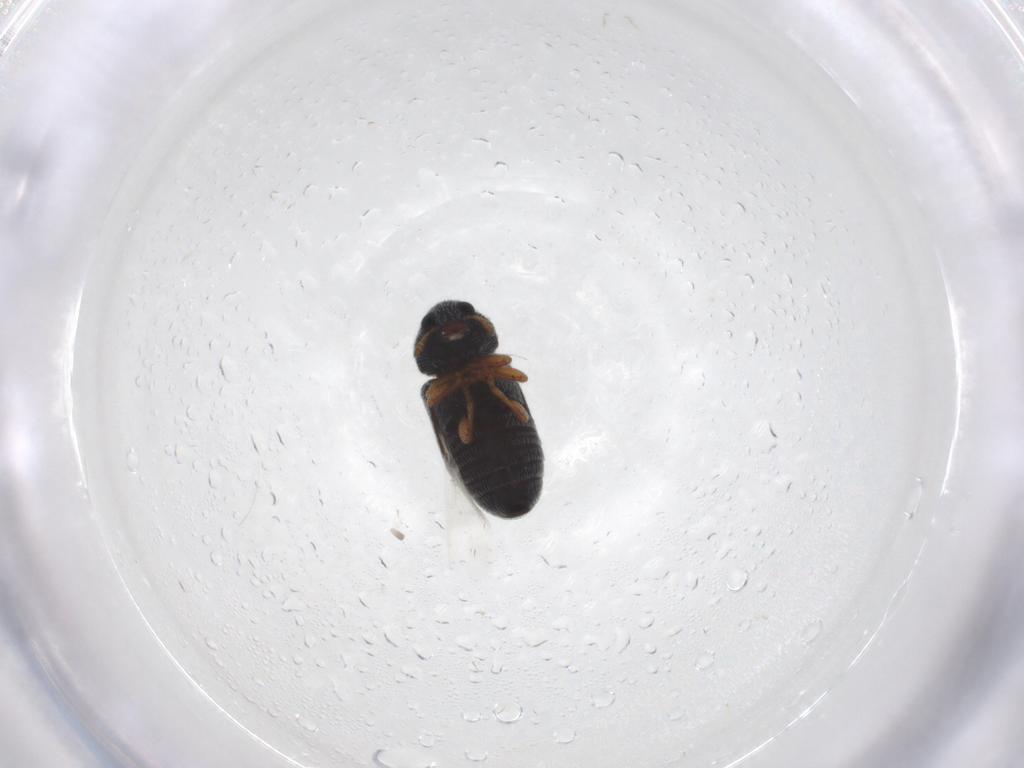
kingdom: Animalia
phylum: Arthropoda
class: Insecta
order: Coleoptera
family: Anthribidae
